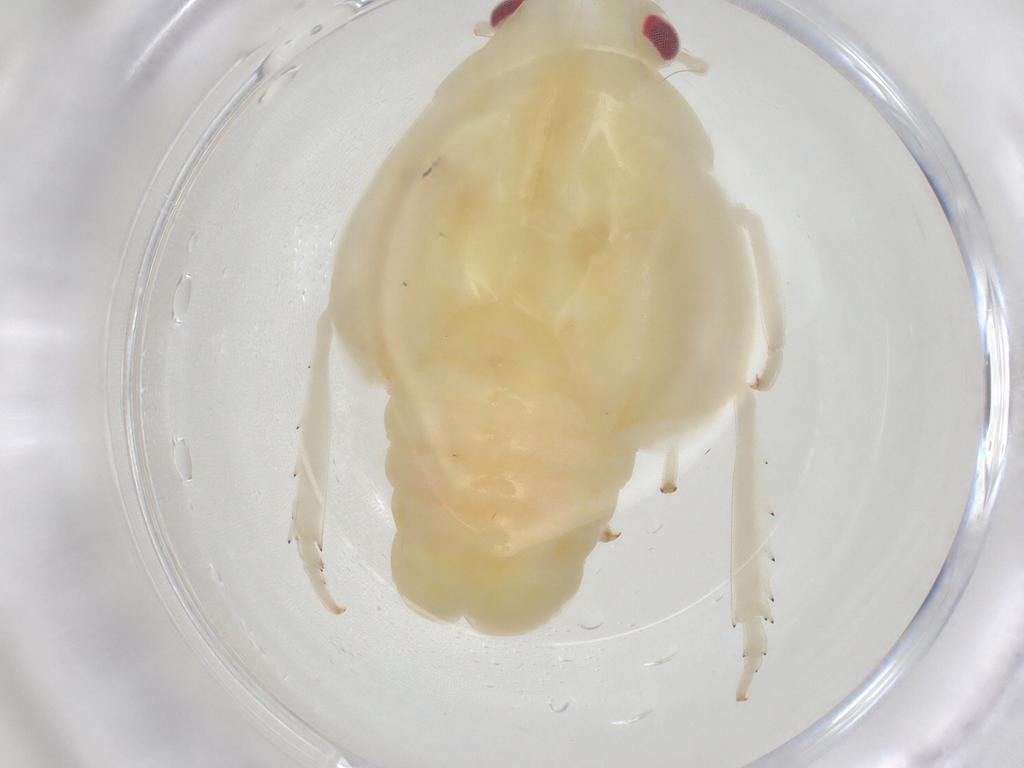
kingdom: Animalia
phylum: Arthropoda
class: Insecta
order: Hemiptera
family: Flatidae
